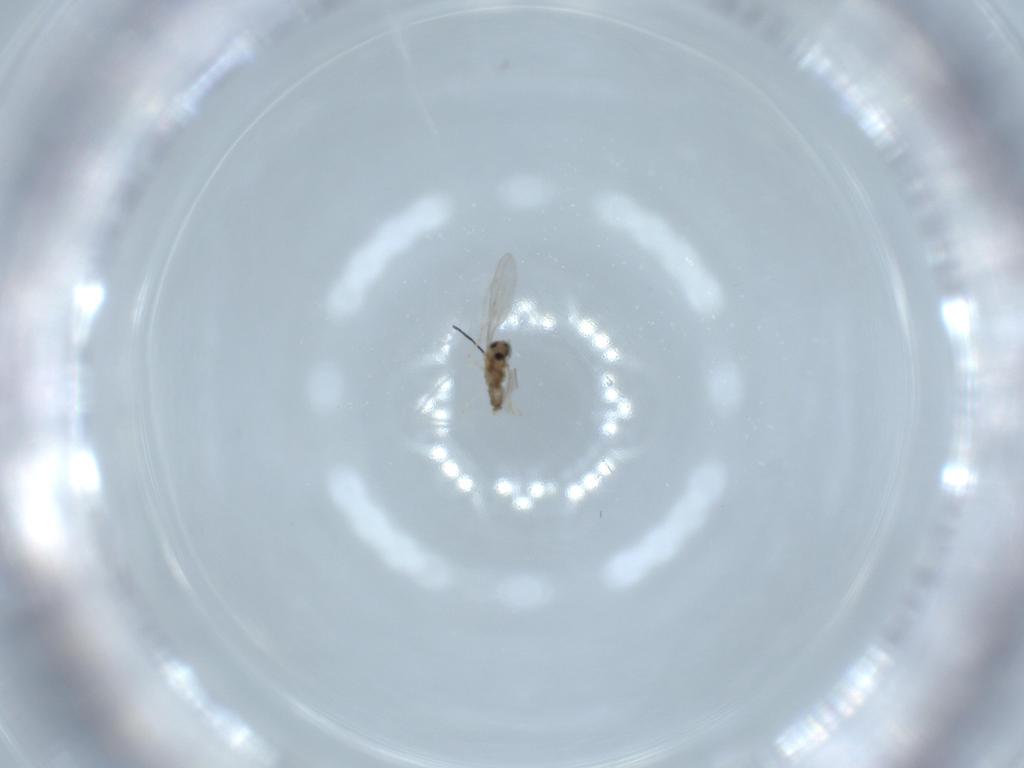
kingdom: Animalia
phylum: Arthropoda
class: Insecta
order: Diptera
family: Cecidomyiidae
